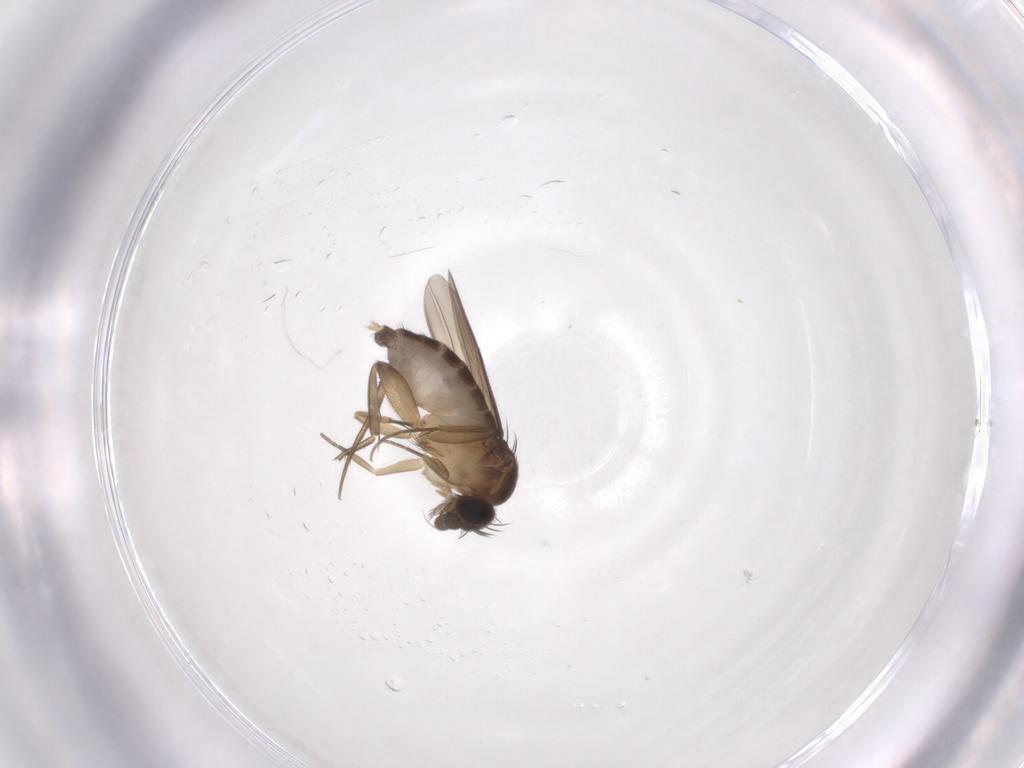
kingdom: Animalia
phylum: Arthropoda
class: Insecta
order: Diptera
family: Phoridae
